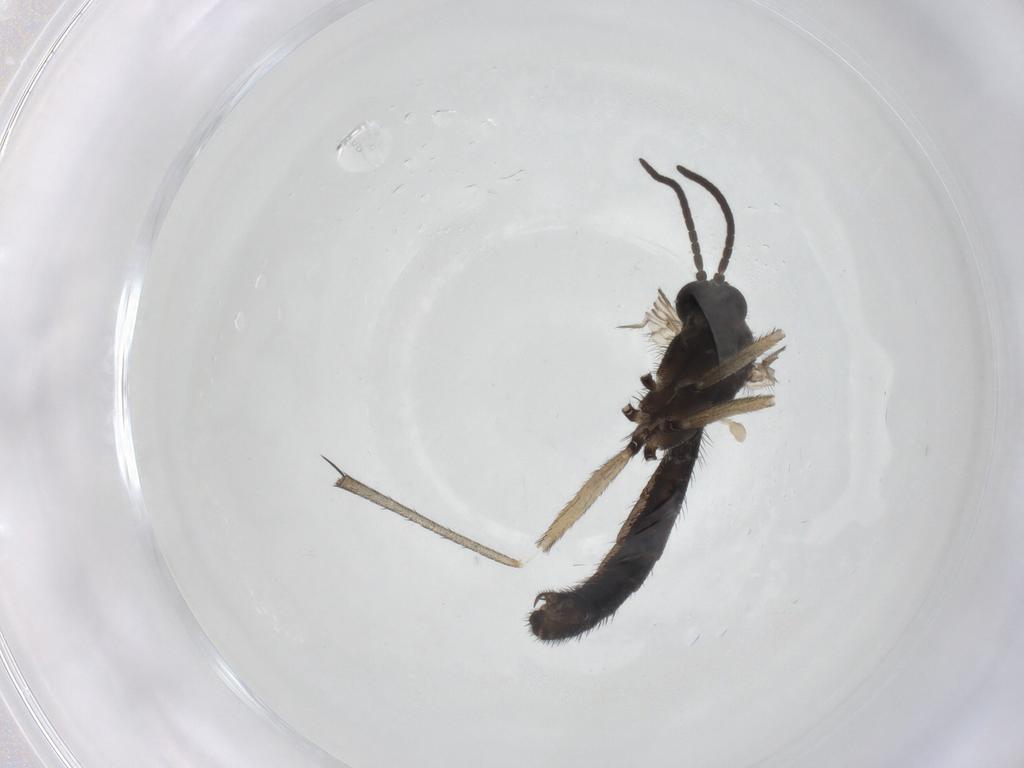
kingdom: Animalia
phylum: Arthropoda
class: Insecta
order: Diptera
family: Keroplatidae
